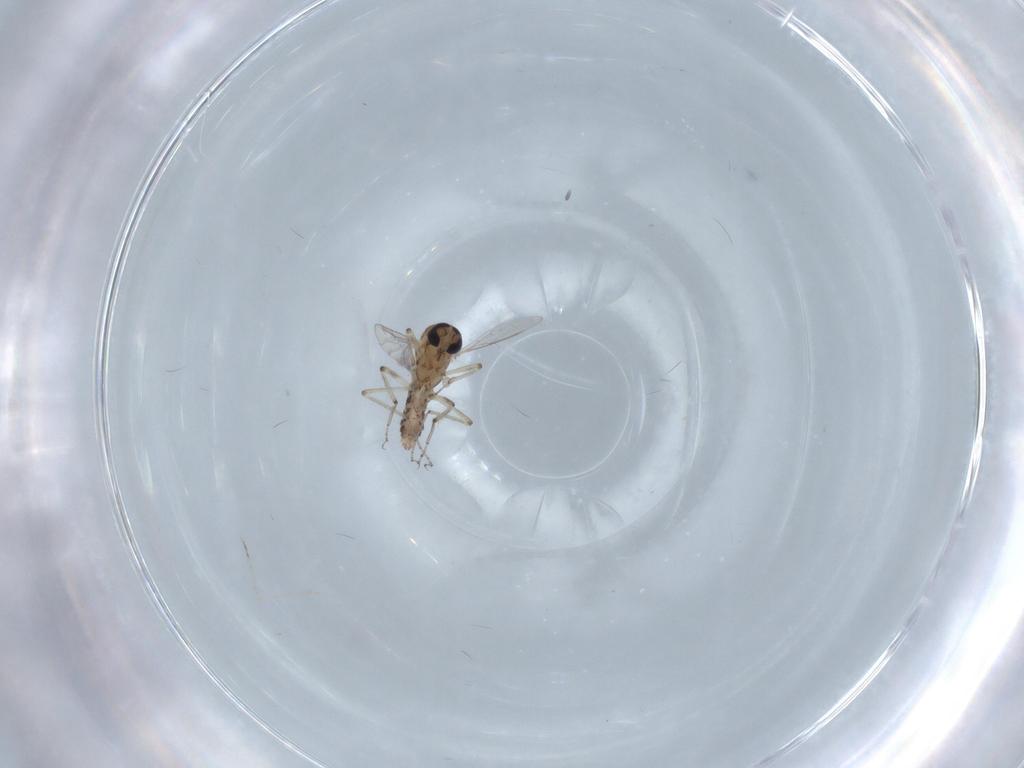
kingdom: Animalia
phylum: Arthropoda
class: Insecta
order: Diptera
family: Ceratopogonidae
